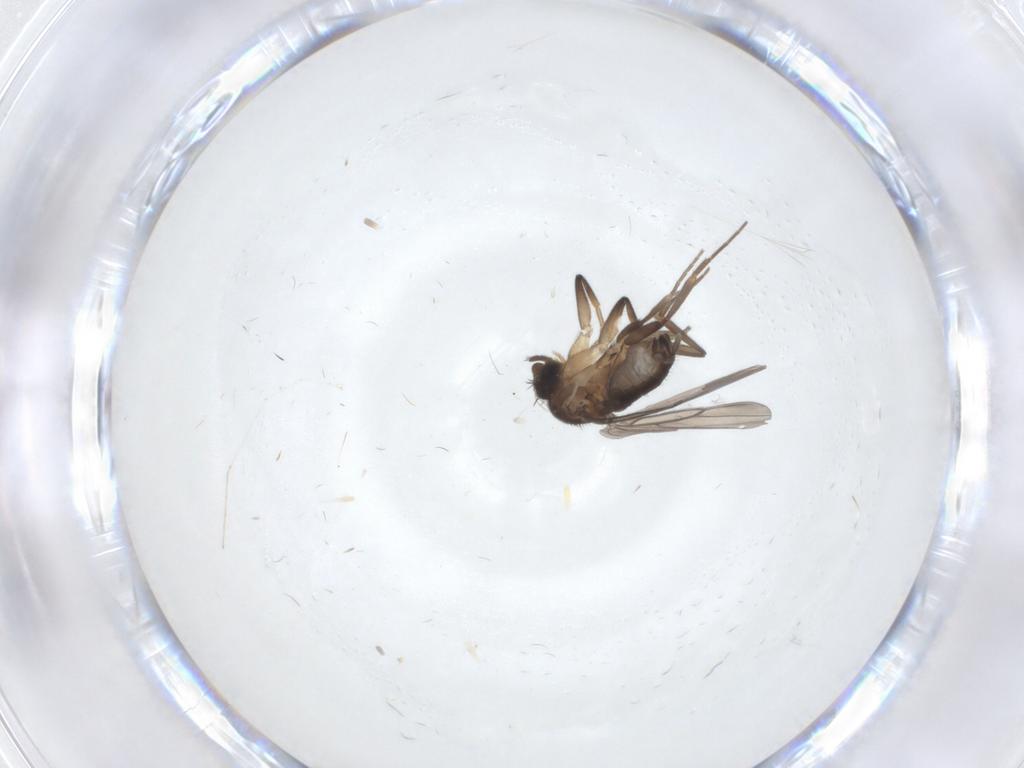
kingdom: Animalia
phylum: Arthropoda
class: Insecta
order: Diptera
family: Phoridae
